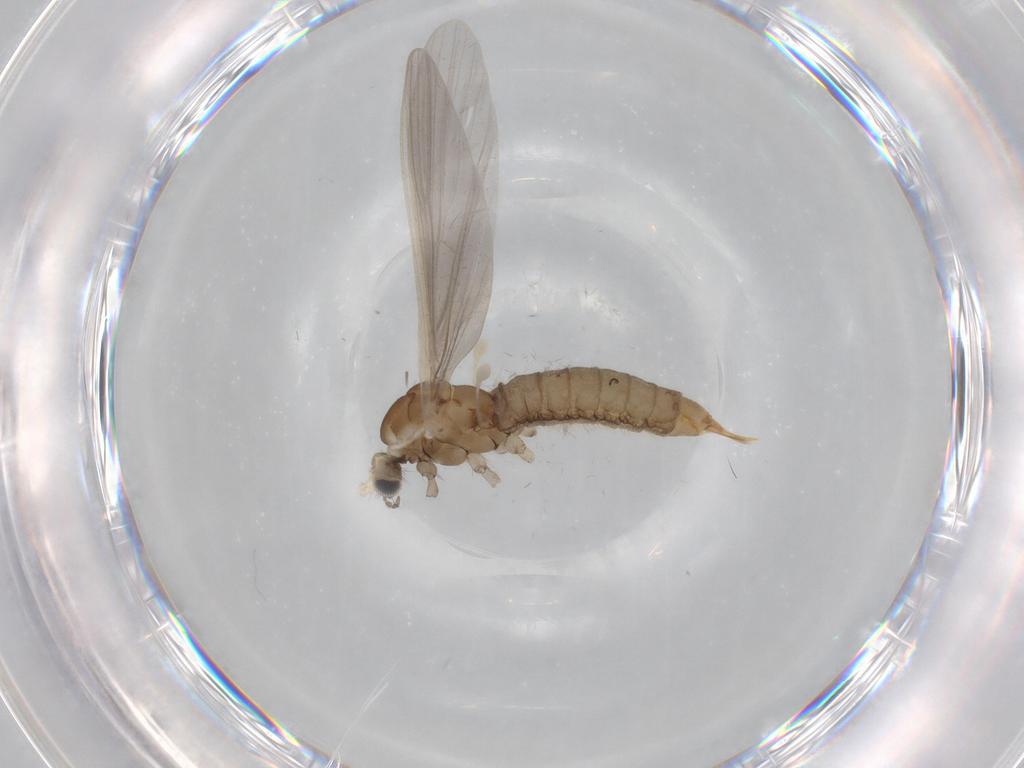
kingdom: Animalia
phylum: Arthropoda
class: Insecta
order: Diptera
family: Limoniidae
